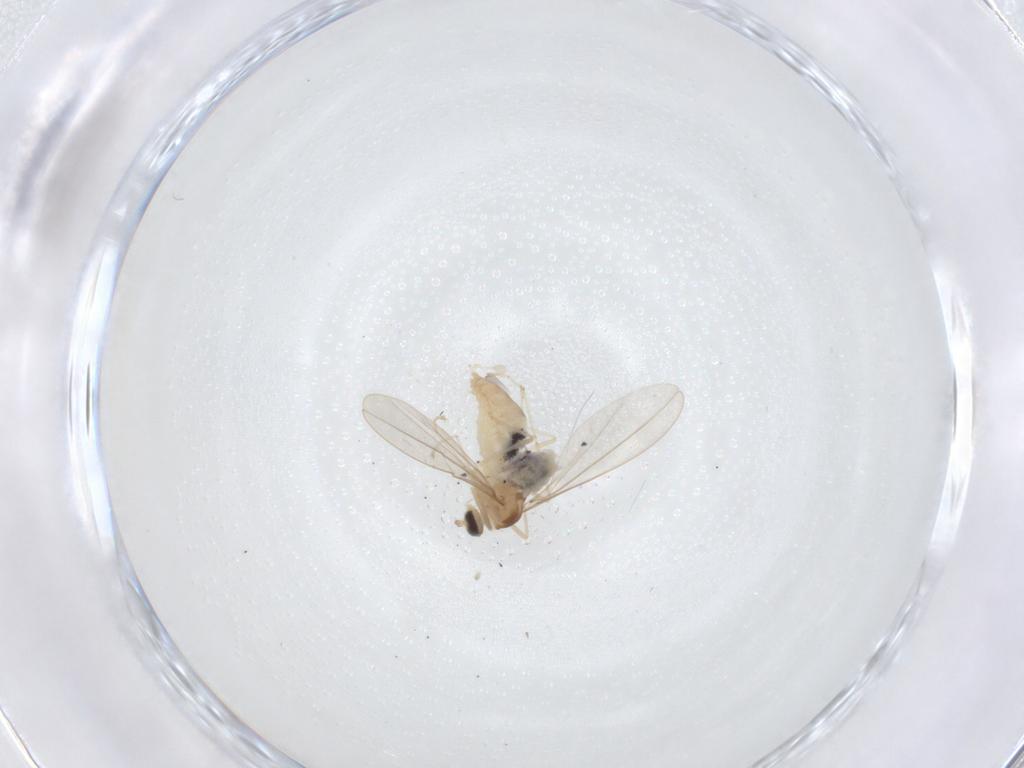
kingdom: Animalia
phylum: Arthropoda
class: Insecta
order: Diptera
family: Cecidomyiidae
